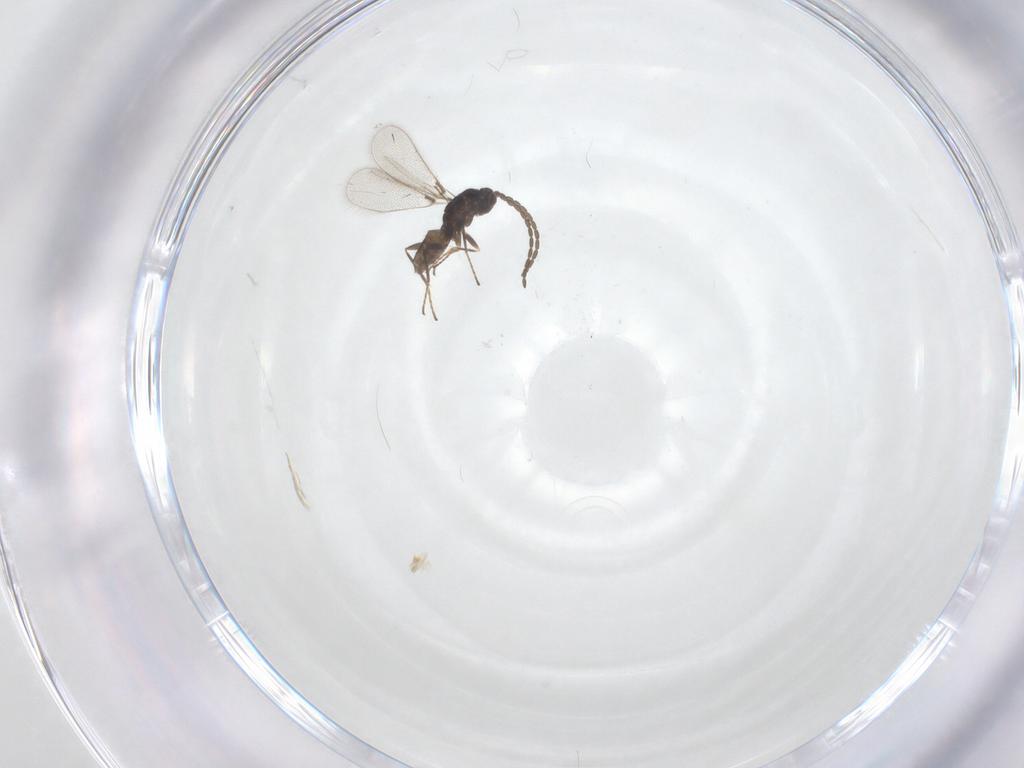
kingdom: Animalia
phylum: Arthropoda
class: Insecta
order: Hymenoptera
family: Mymaridae
